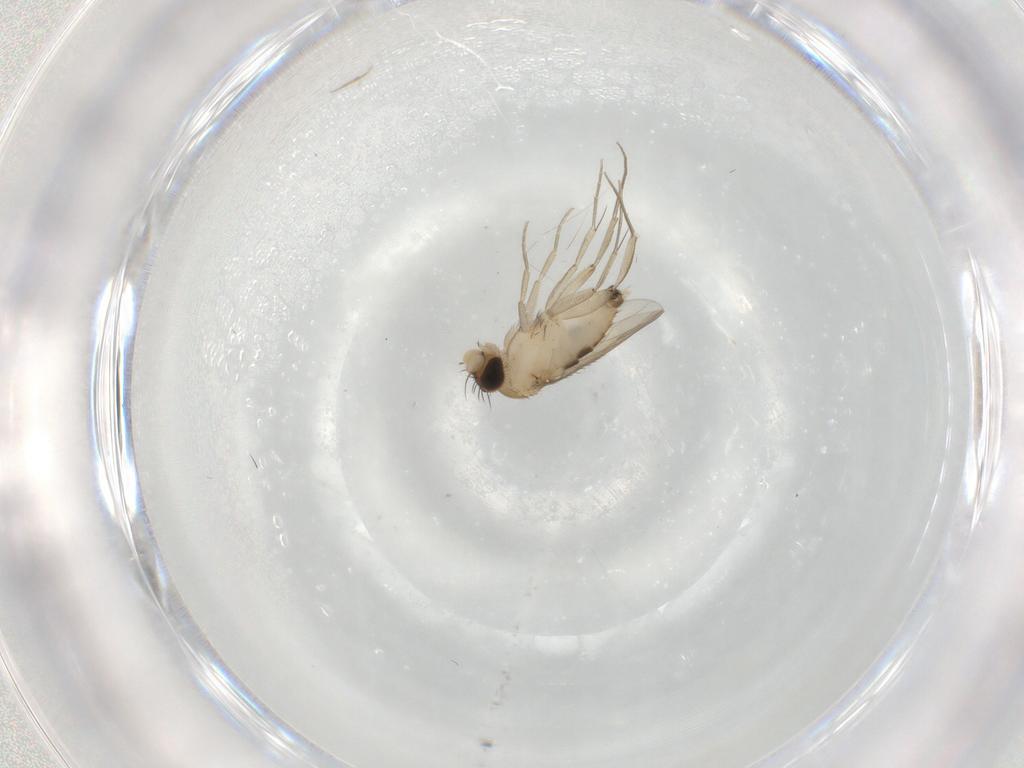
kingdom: Animalia
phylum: Arthropoda
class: Insecta
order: Diptera
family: Phoridae
